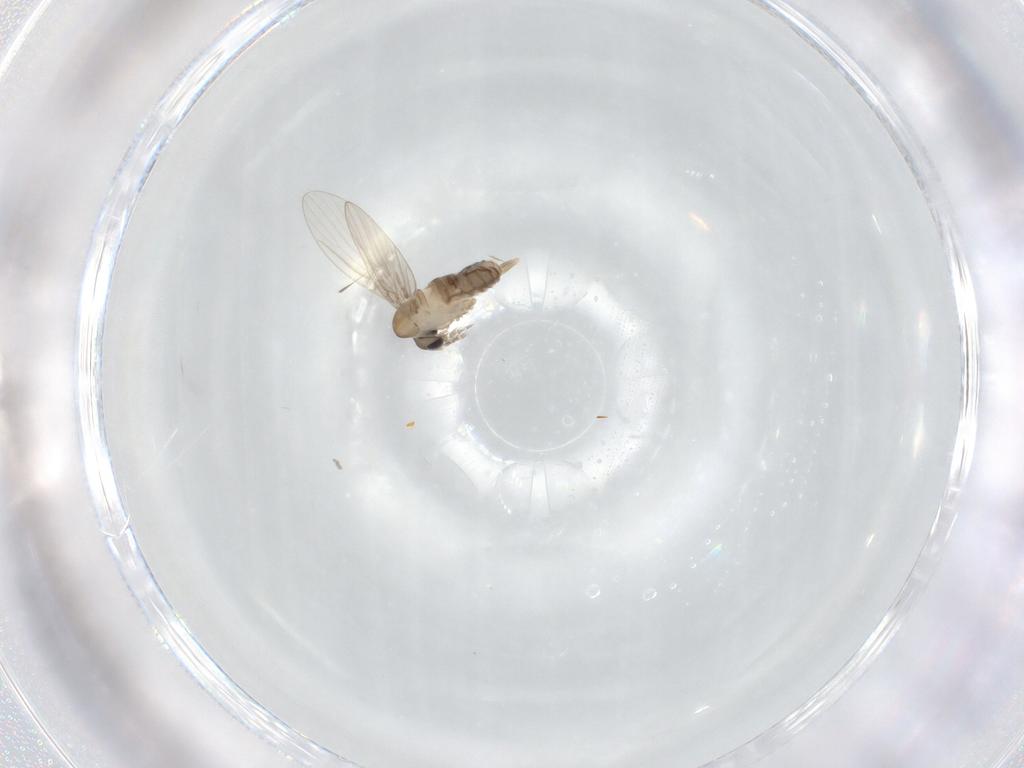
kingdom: Animalia
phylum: Arthropoda
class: Insecta
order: Diptera
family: Psychodidae
